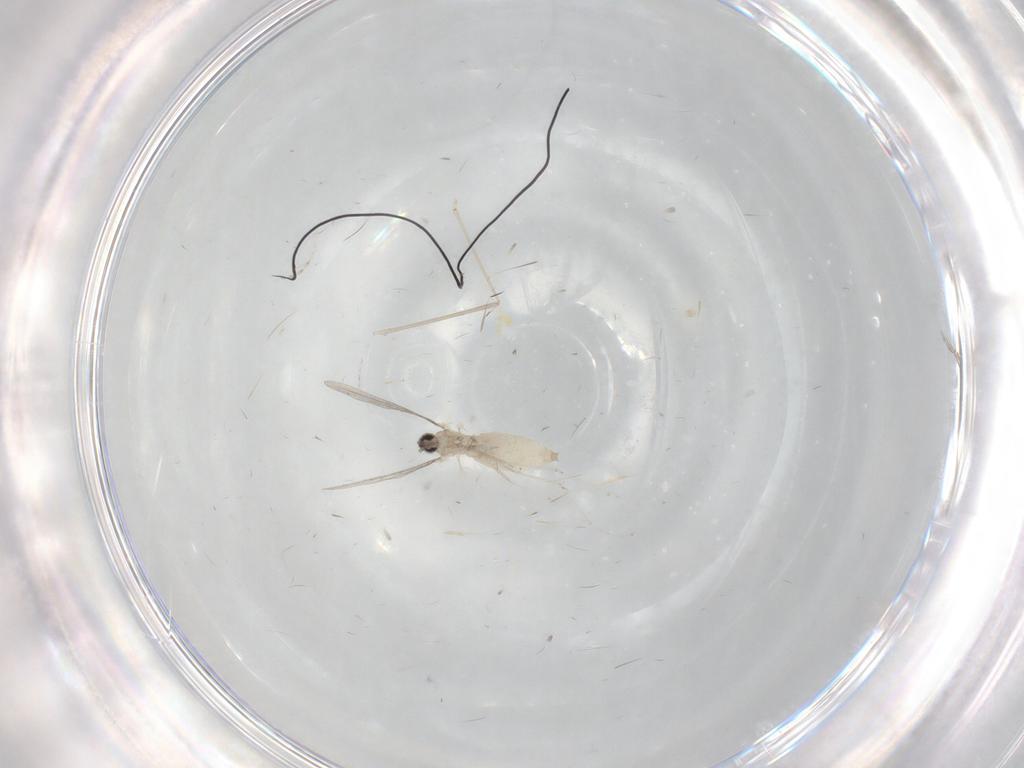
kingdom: Animalia
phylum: Arthropoda
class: Insecta
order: Diptera
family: Cecidomyiidae
